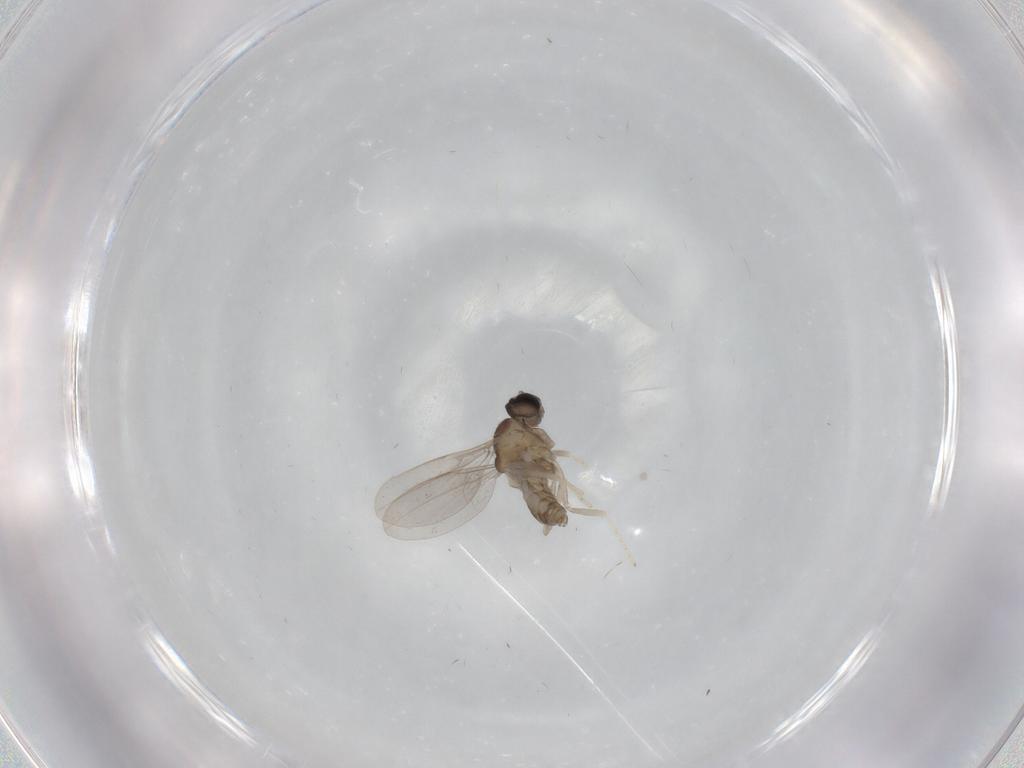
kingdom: Animalia
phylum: Arthropoda
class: Insecta
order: Diptera
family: Cecidomyiidae
